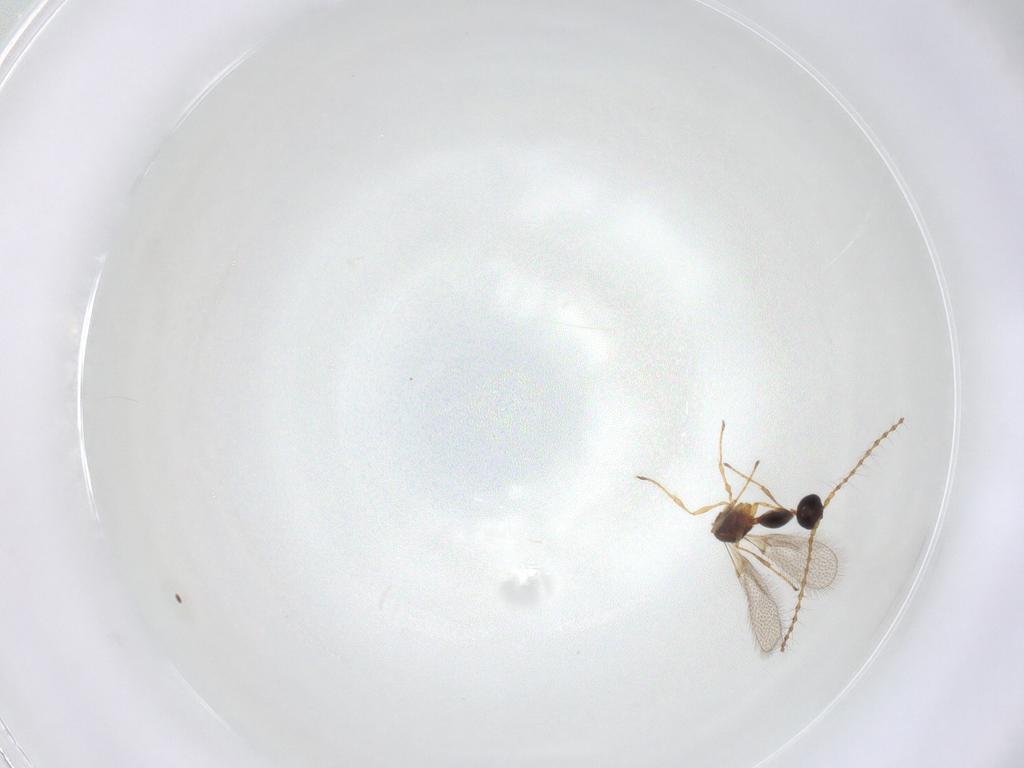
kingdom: Animalia
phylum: Arthropoda
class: Insecta
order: Hymenoptera
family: Diapriidae
